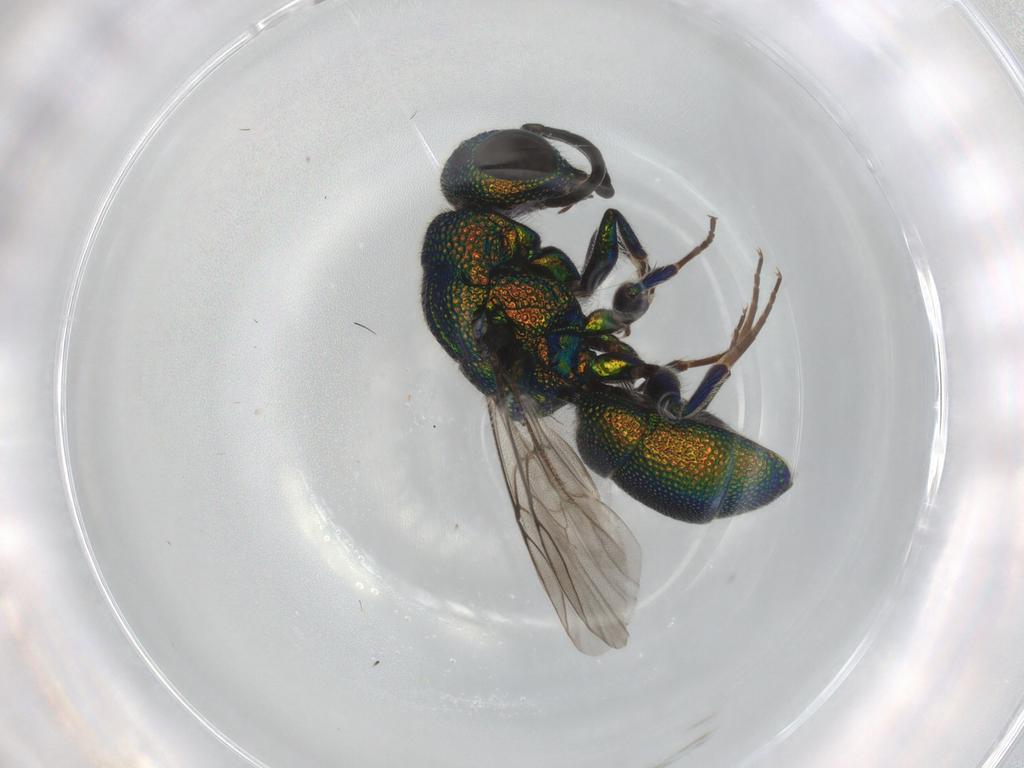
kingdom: Animalia
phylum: Arthropoda
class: Insecta
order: Hymenoptera
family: Chrysididae
